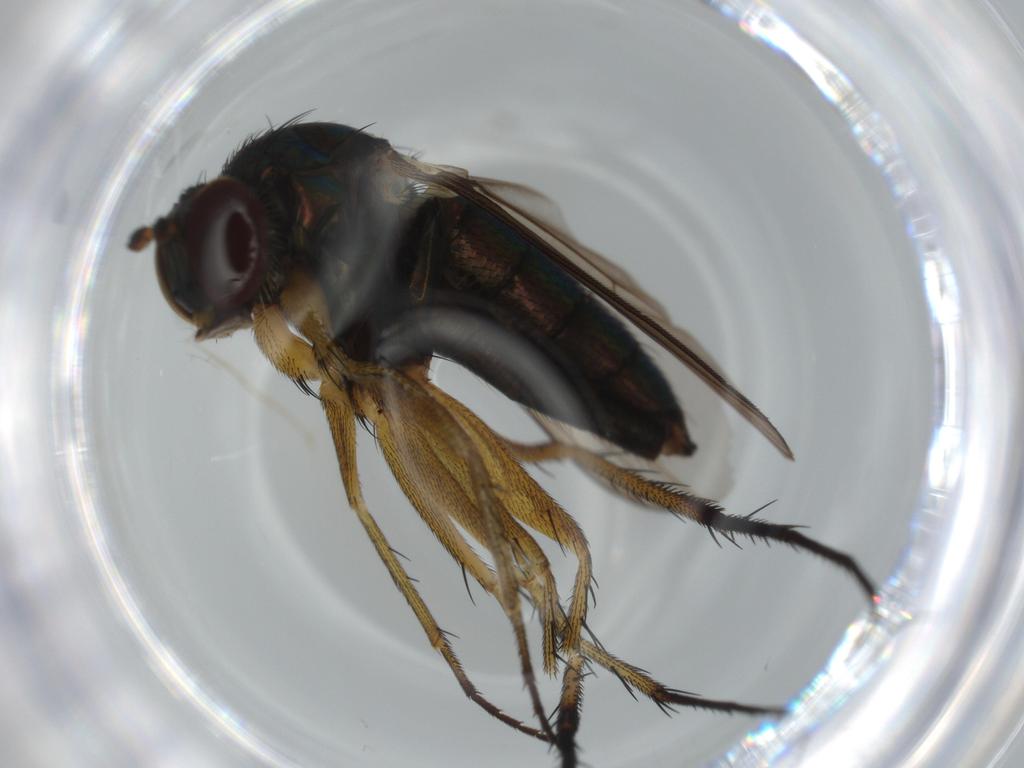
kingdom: Animalia
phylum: Arthropoda
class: Insecta
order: Diptera
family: Dolichopodidae
